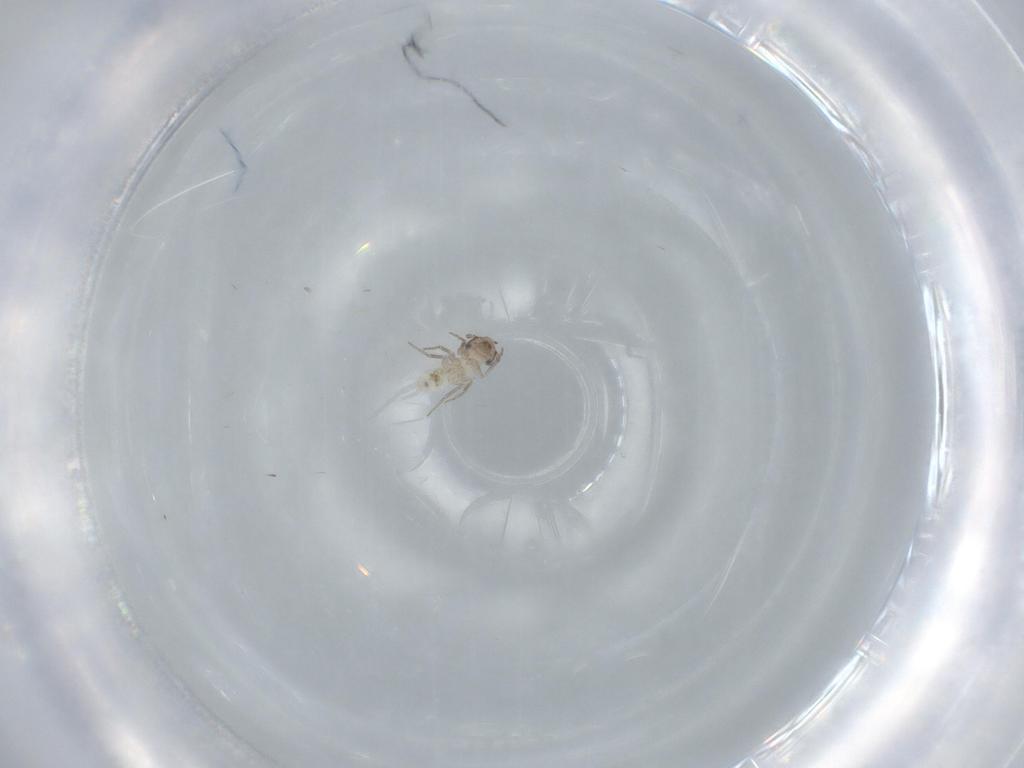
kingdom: Animalia
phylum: Arthropoda
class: Insecta
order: Psocodea
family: Lepidopsocidae
